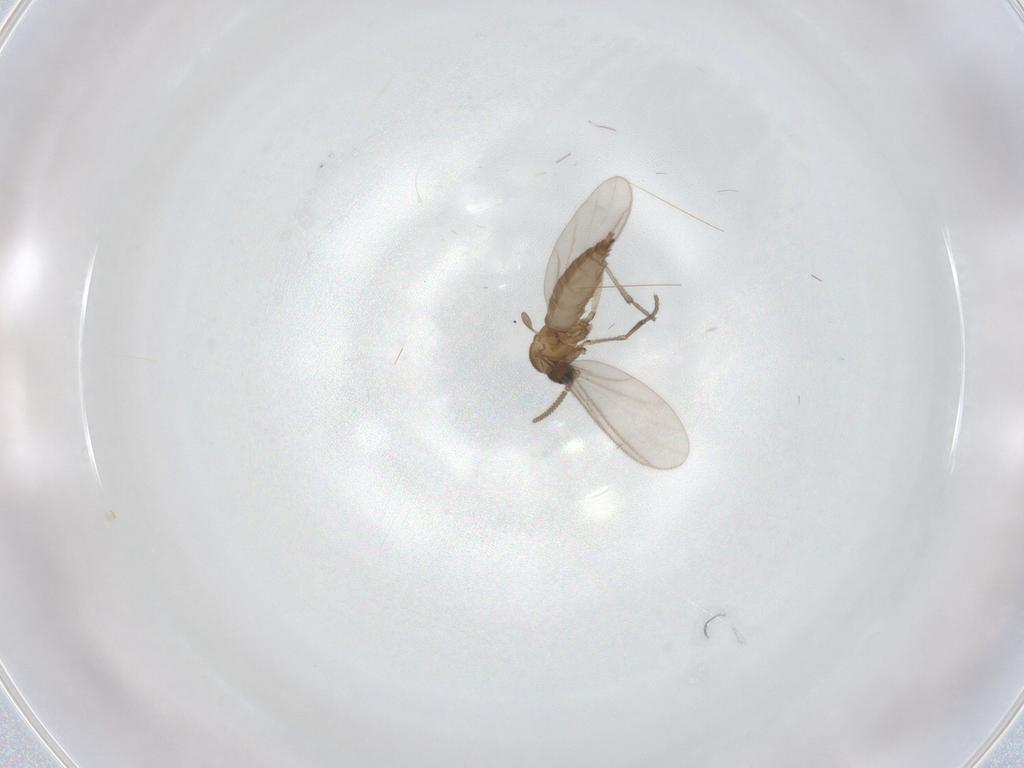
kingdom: Animalia
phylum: Arthropoda
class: Insecta
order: Diptera
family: Sciaridae
